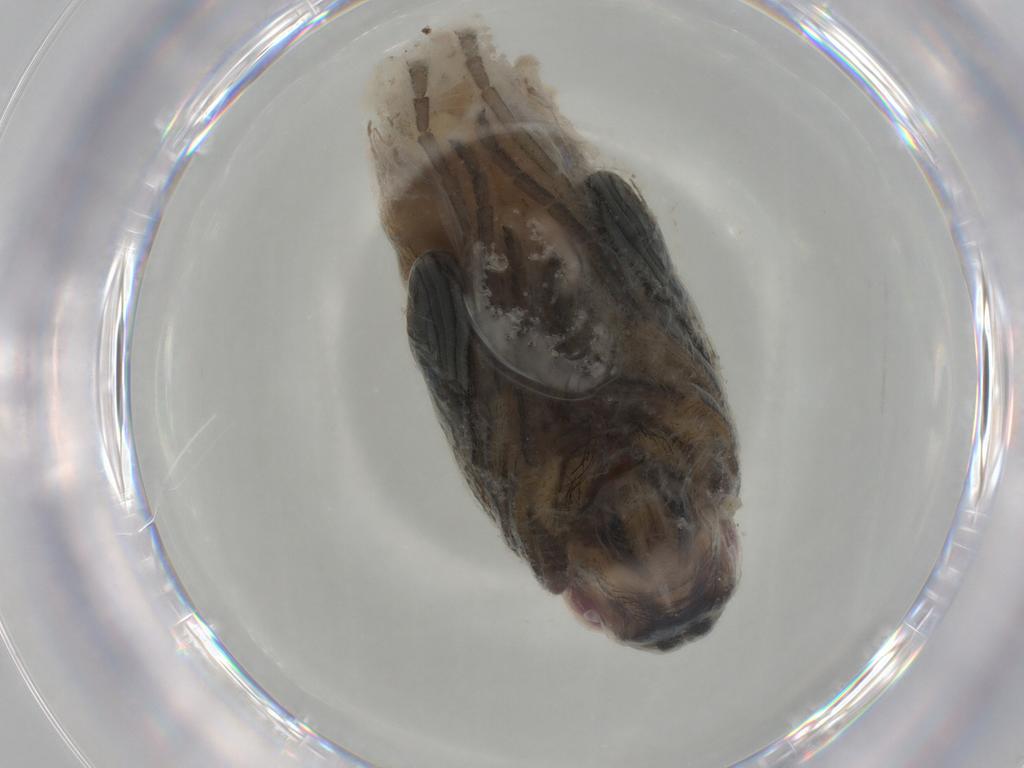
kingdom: Animalia
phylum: Arthropoda
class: Insecta
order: Diptera
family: Muscidae
